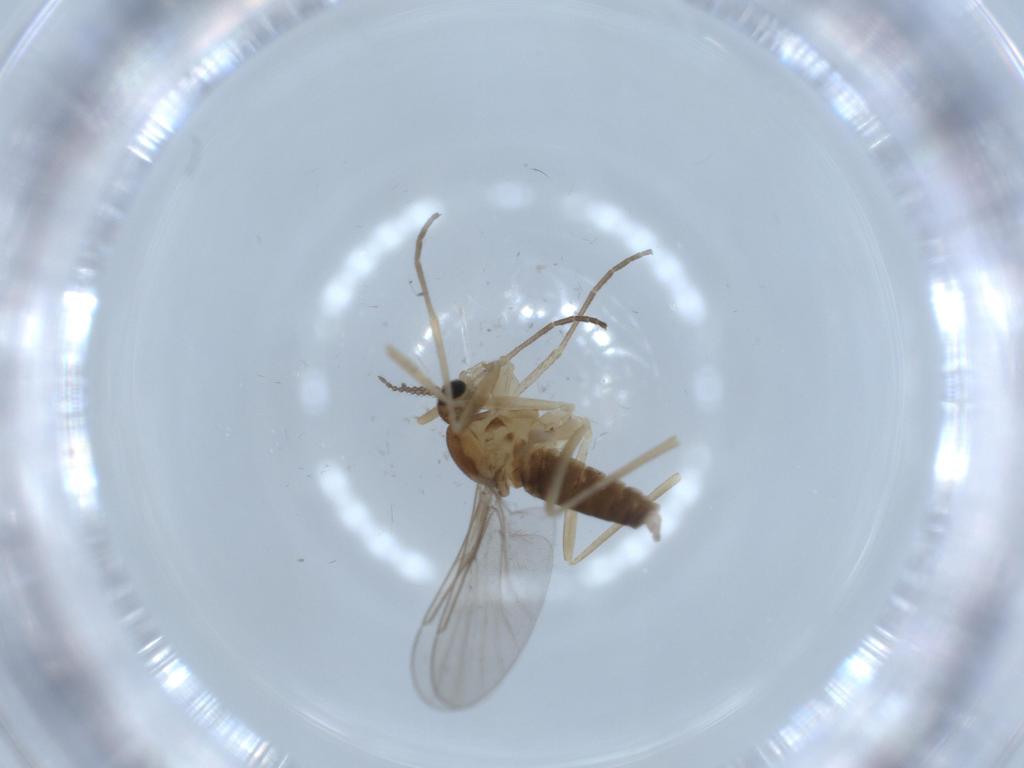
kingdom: Animalia
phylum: Arthropoda
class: Insecta
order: Diptera
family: Cecidomyiidae
